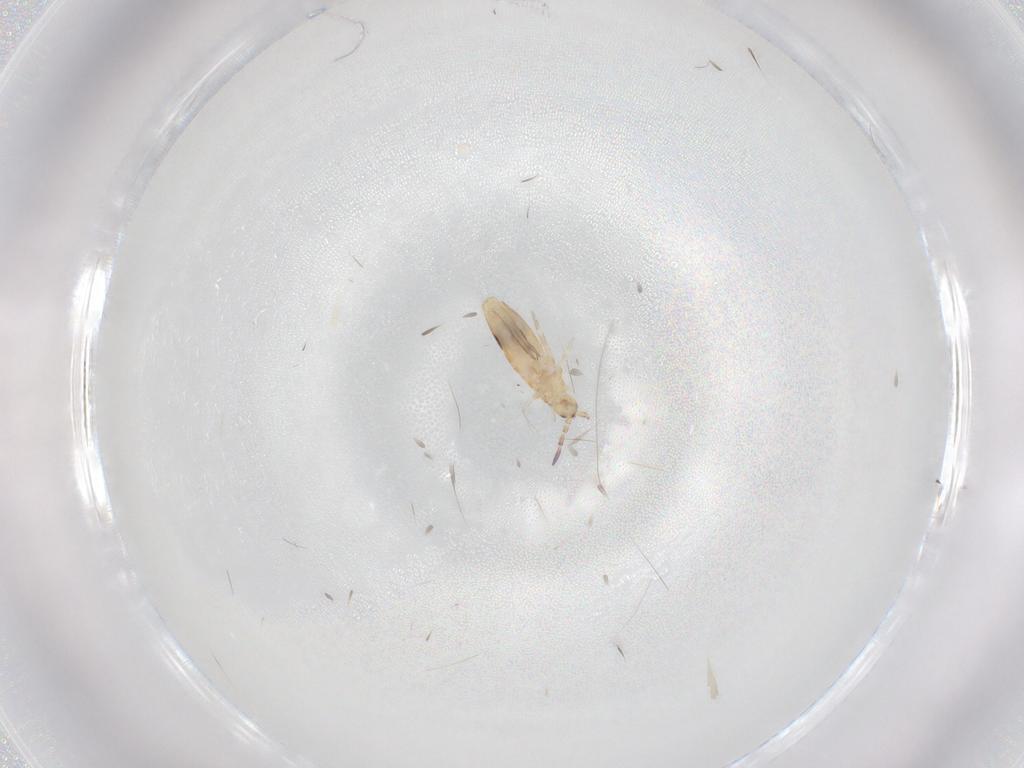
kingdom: Animalia
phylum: Arthropoda
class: Collembola
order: Entomobryomorpha
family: Entomobryidae
